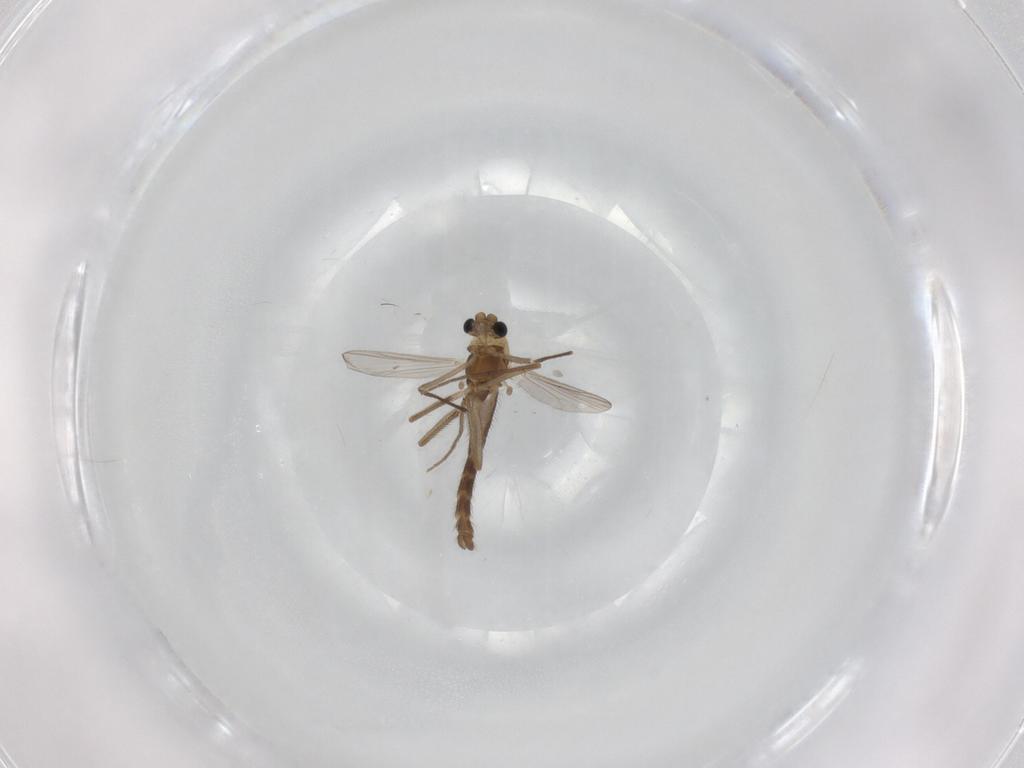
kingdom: Animalia
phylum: Arthropoda
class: Insecta
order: Diptera
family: Chironomidae
